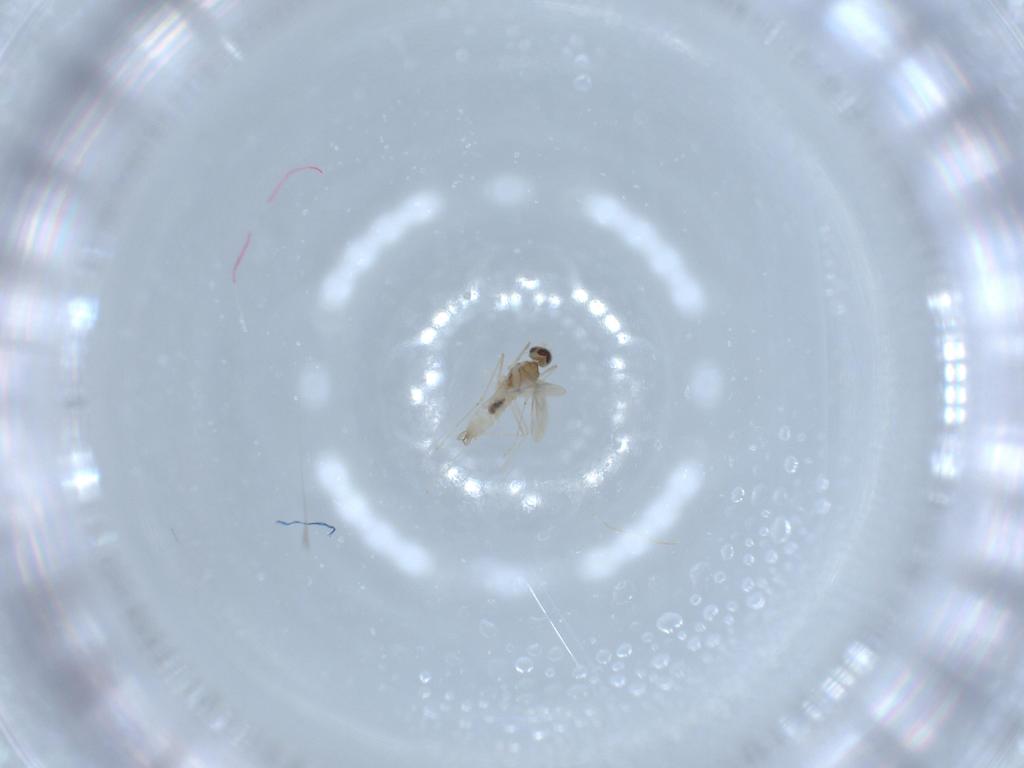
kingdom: Animalia
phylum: Arthropoda
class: Insecta
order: Diptera
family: Cecidomyiidae
